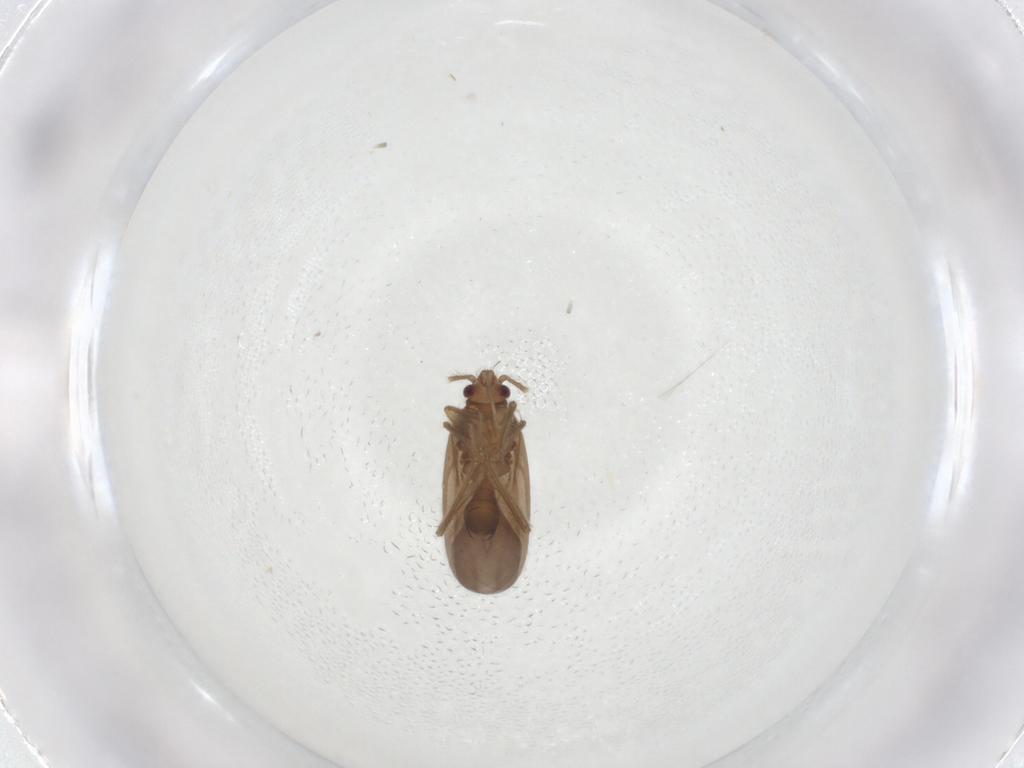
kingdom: Animalia
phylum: Arthropoda
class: Insecta
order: Hemiptera
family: Ceratocombidae
